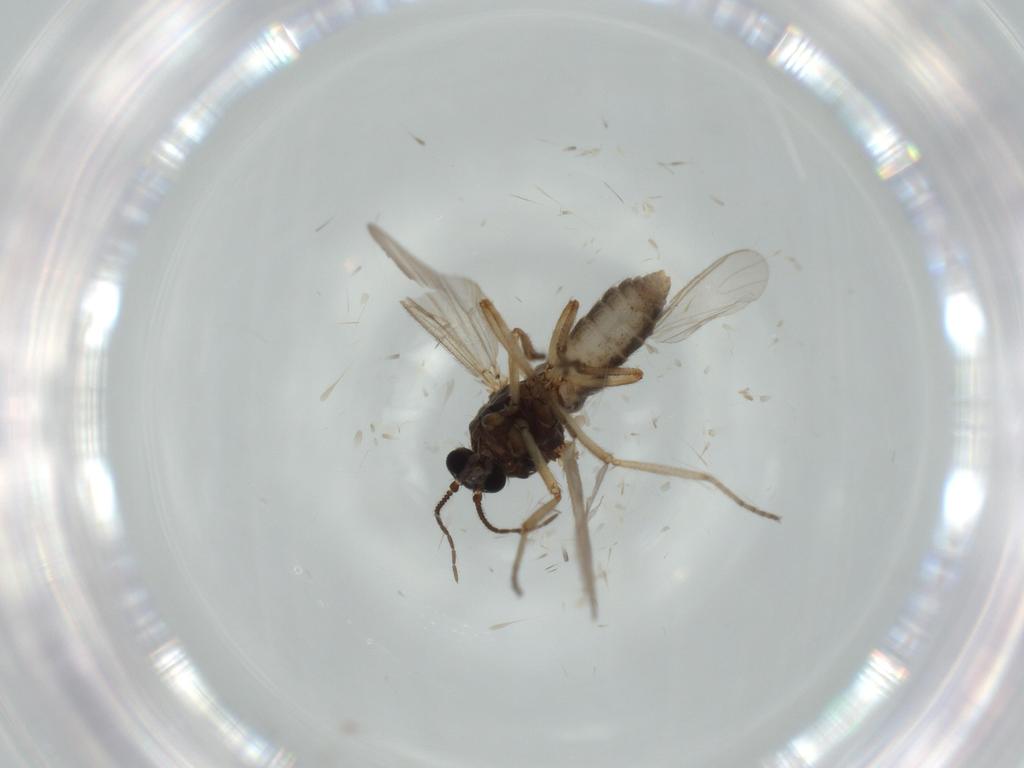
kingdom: Animalia
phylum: Arthropoda
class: Insecta
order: Diptera
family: Ceratopogonidae
